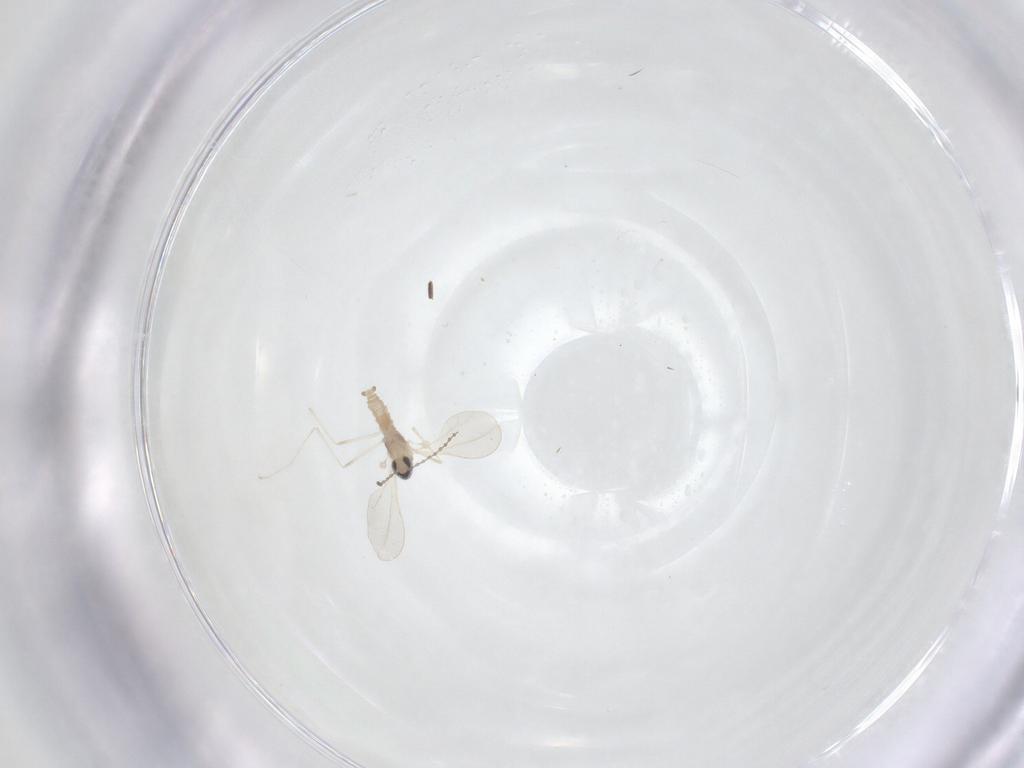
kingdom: Animalia
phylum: Arthropoda
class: Insecta
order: Diptera
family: Cecidomyiidae
